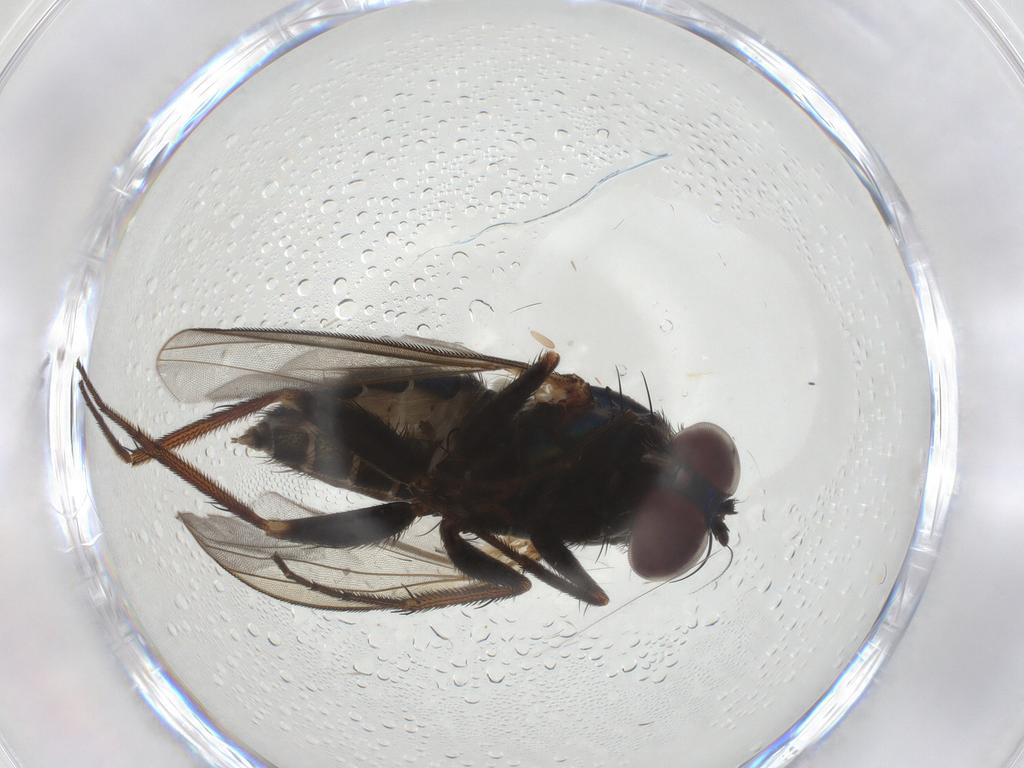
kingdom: Animalia
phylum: Arthropoda
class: Insecta
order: Diptera
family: Dolichopodidae
